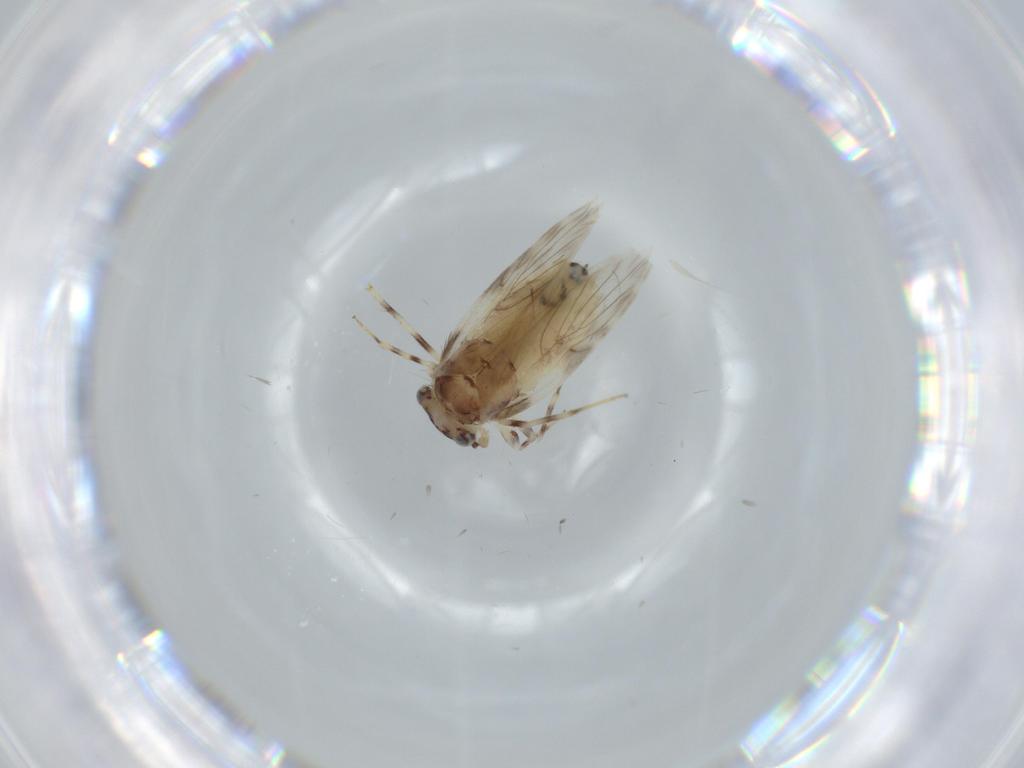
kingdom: Animalia
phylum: Arthropoda
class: Insecta
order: Psocodea
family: Lepidopsocidae
